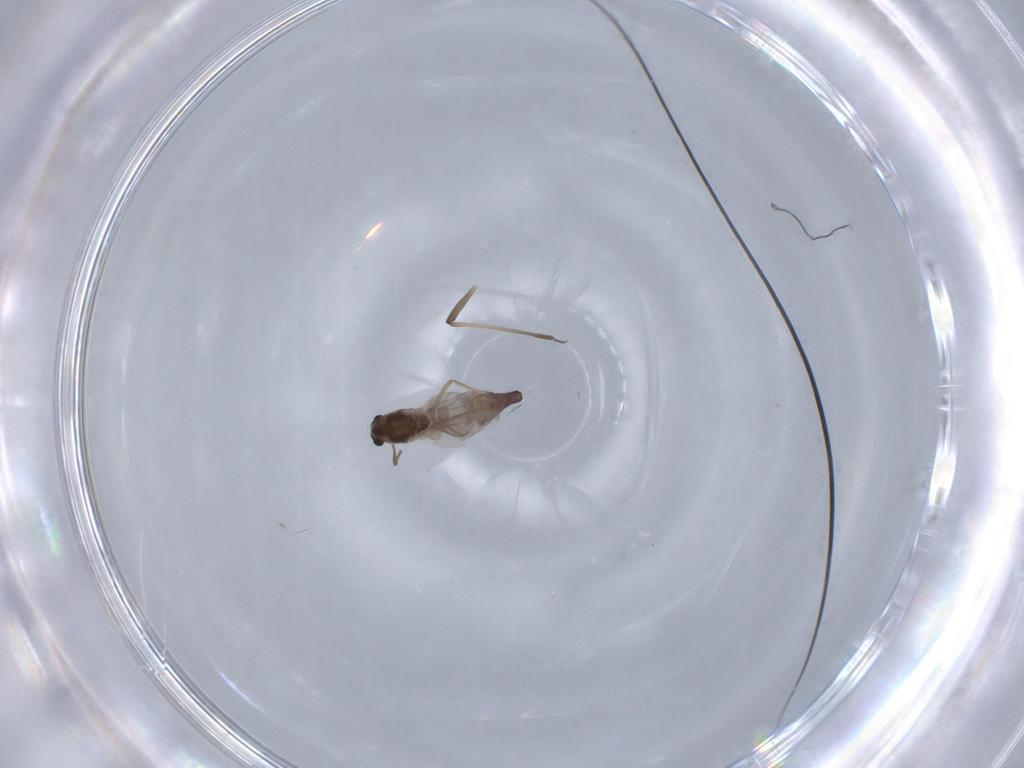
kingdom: Animalia
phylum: Arthropoda
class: Insecta
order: Diptera
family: Chironomidae
